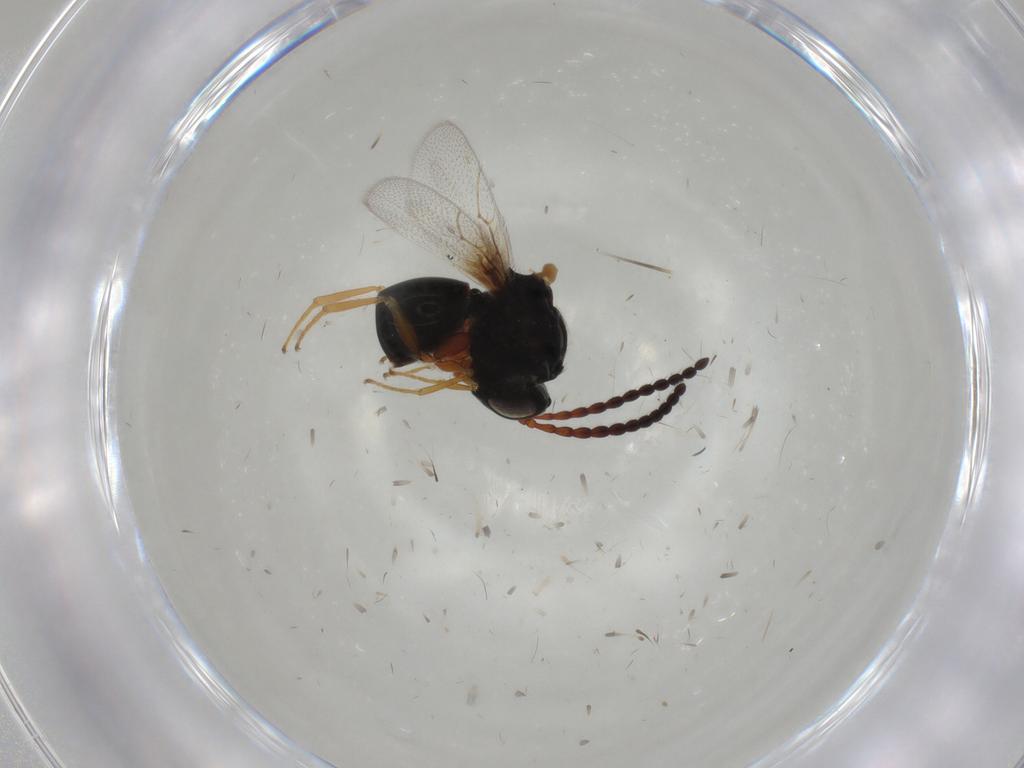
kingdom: Animalia
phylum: Arthropoda
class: Insecta
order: Hymenoptera
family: Figitidae
